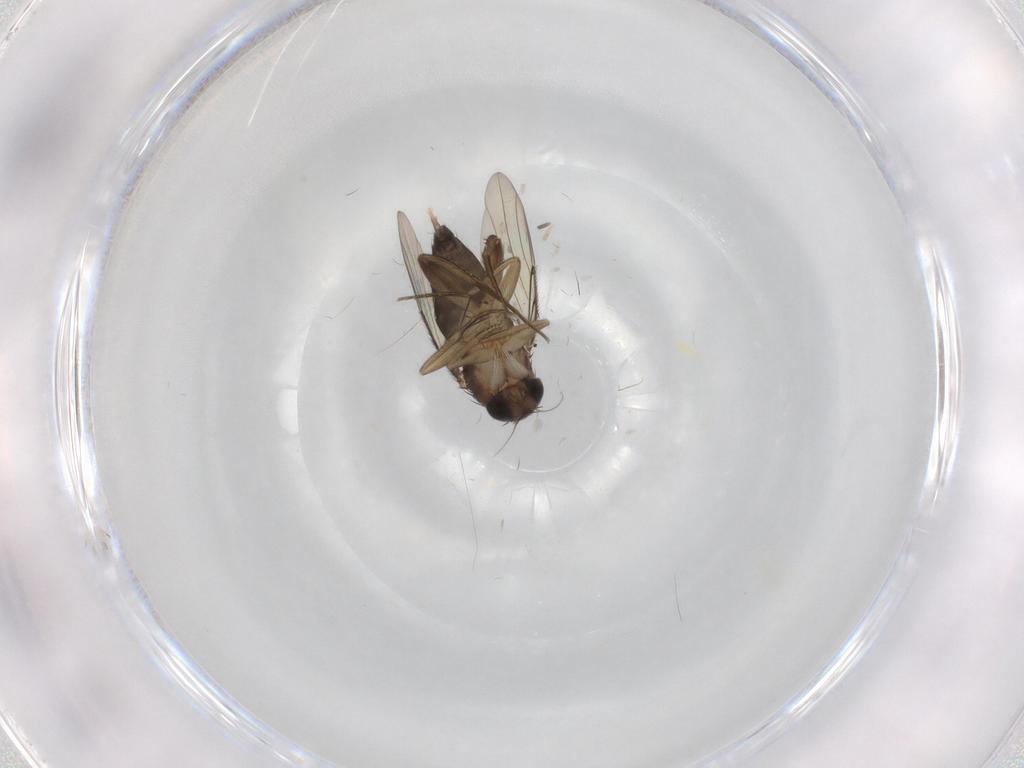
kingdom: Animalia
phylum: Arthropoda
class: Insecta
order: Diptera
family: Phoridae
